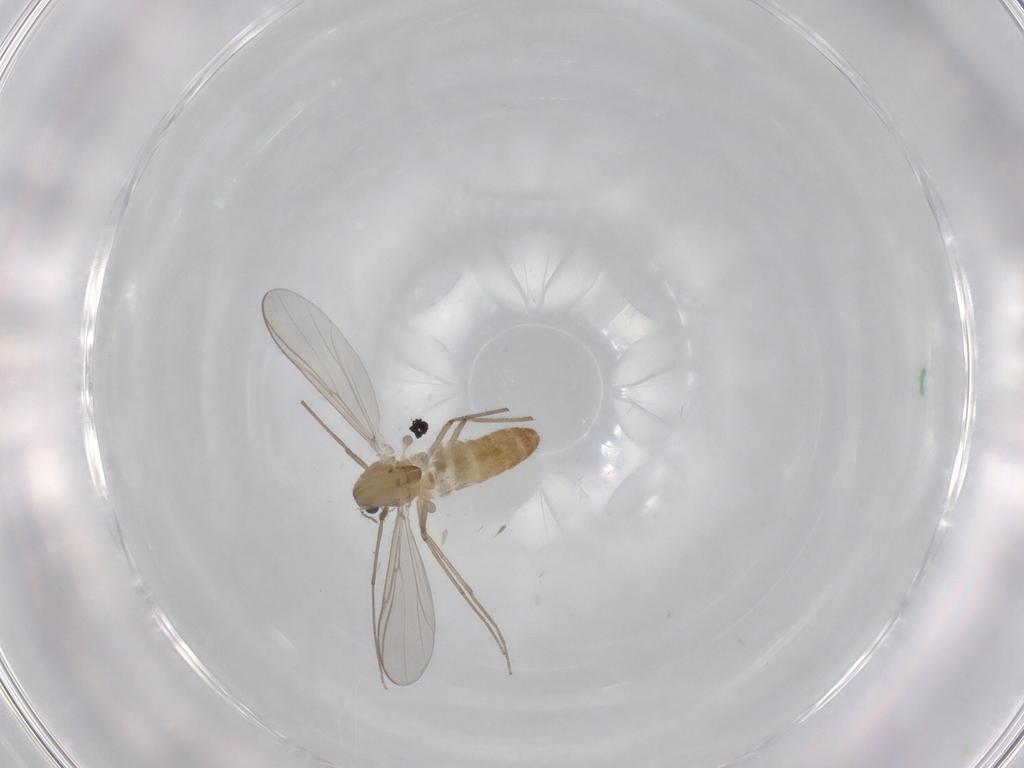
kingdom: Animalia
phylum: Arthropoda
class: Insecta
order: Diptera
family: Chironomidae
